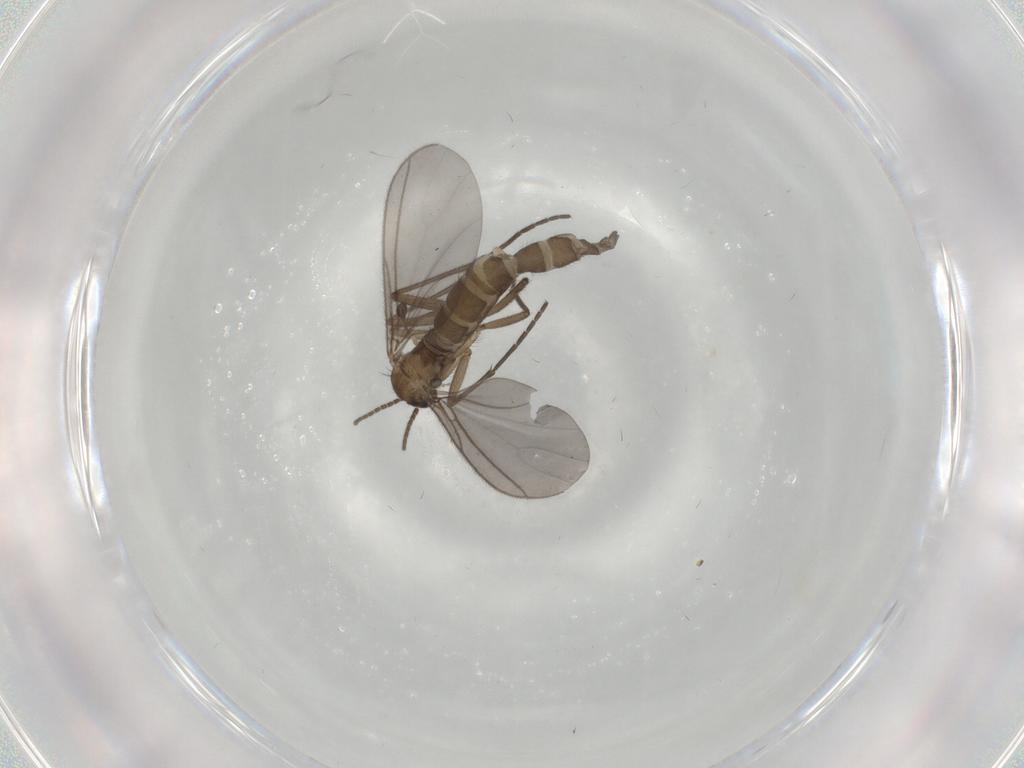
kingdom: Animalia
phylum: Arthropoda
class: Insecta
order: Diptera
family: Sciaridae
